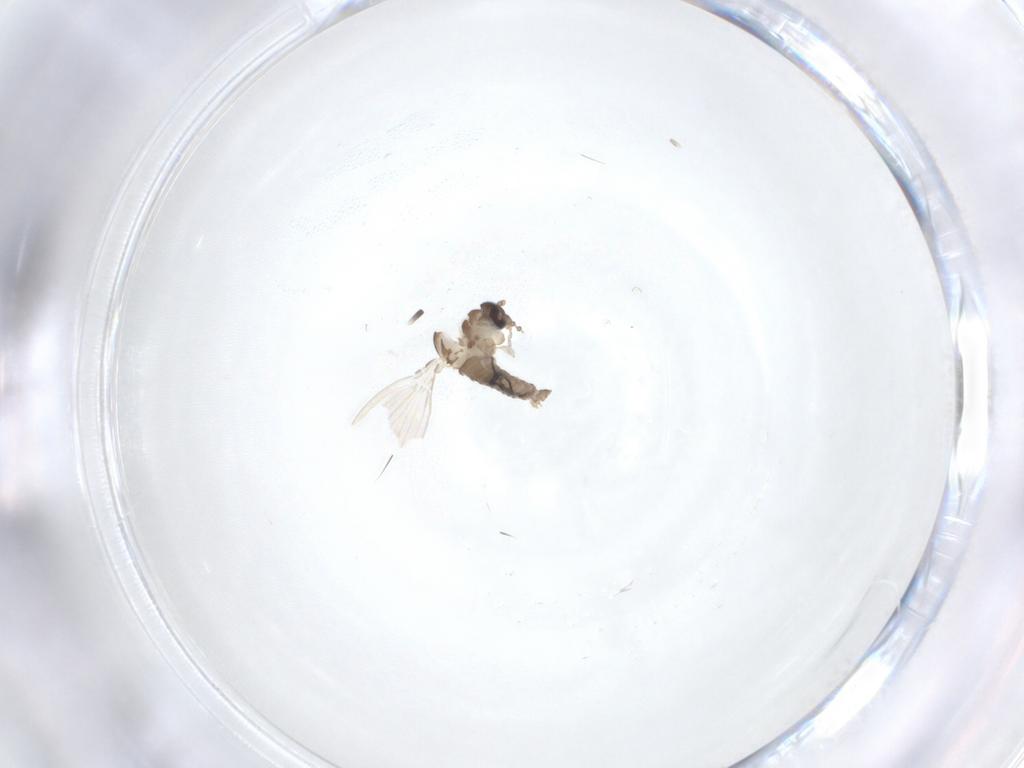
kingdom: Animalia
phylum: Arthropoda
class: Insecta
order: Diptera
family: Psychodidae
